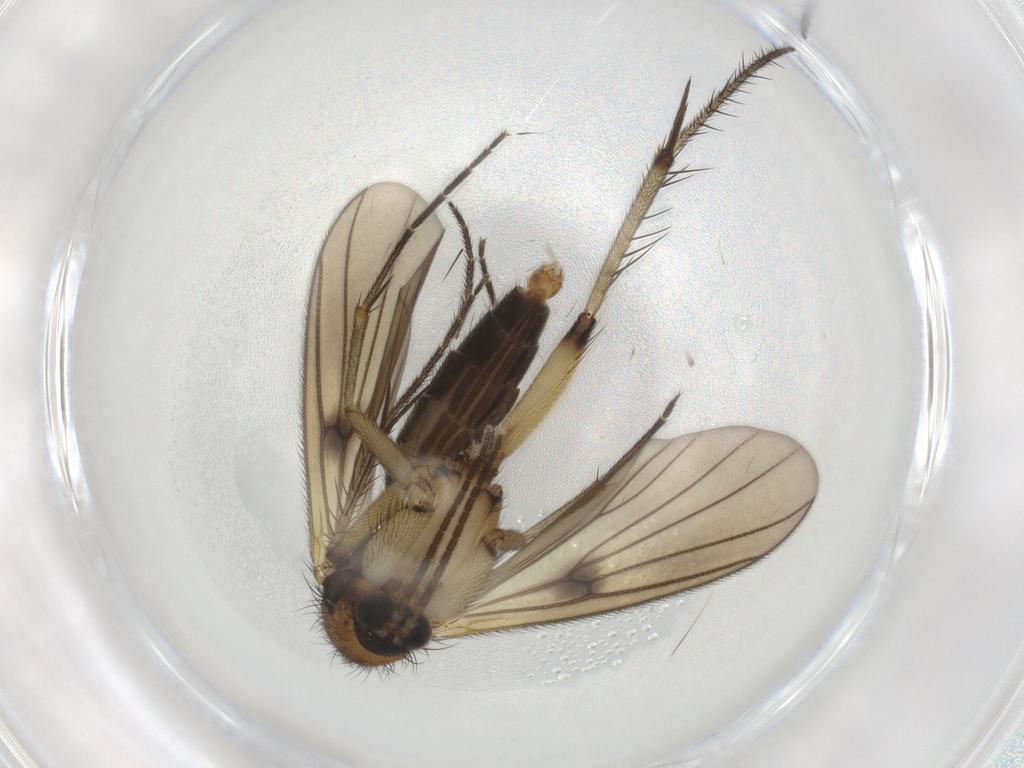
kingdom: Animalia
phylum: Arthropoda
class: Insecta
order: Diptera
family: Mycetophilidae
